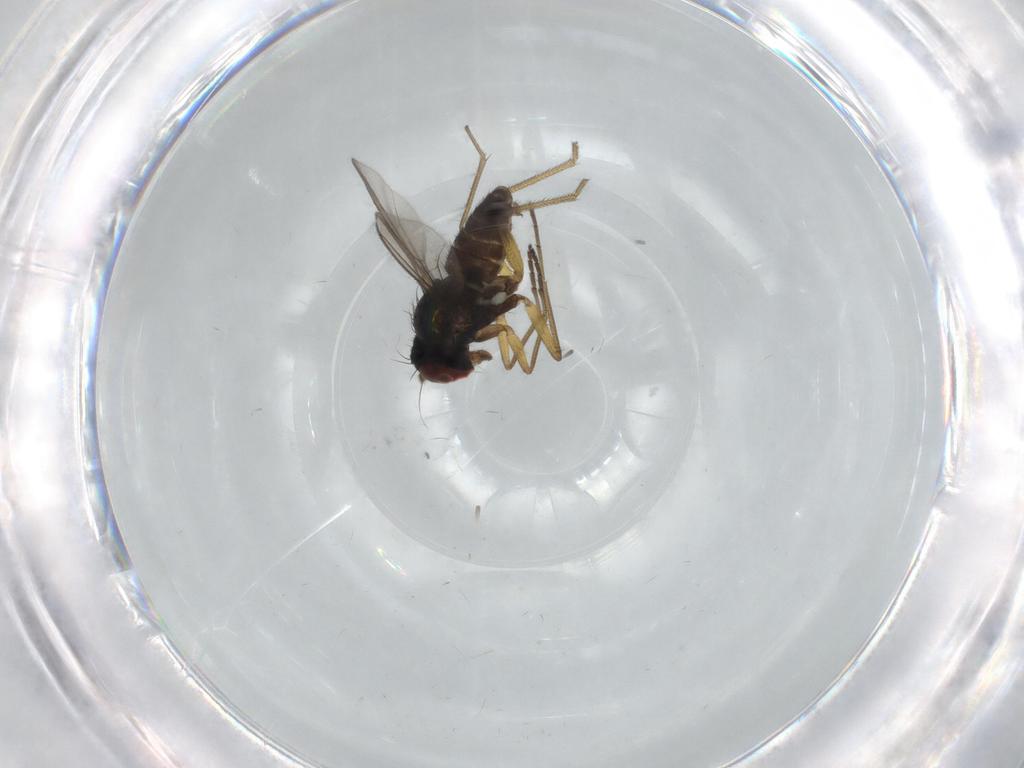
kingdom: Animalia
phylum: Arthropoda
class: Insecta
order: Diptera
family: Dolichopodidae
